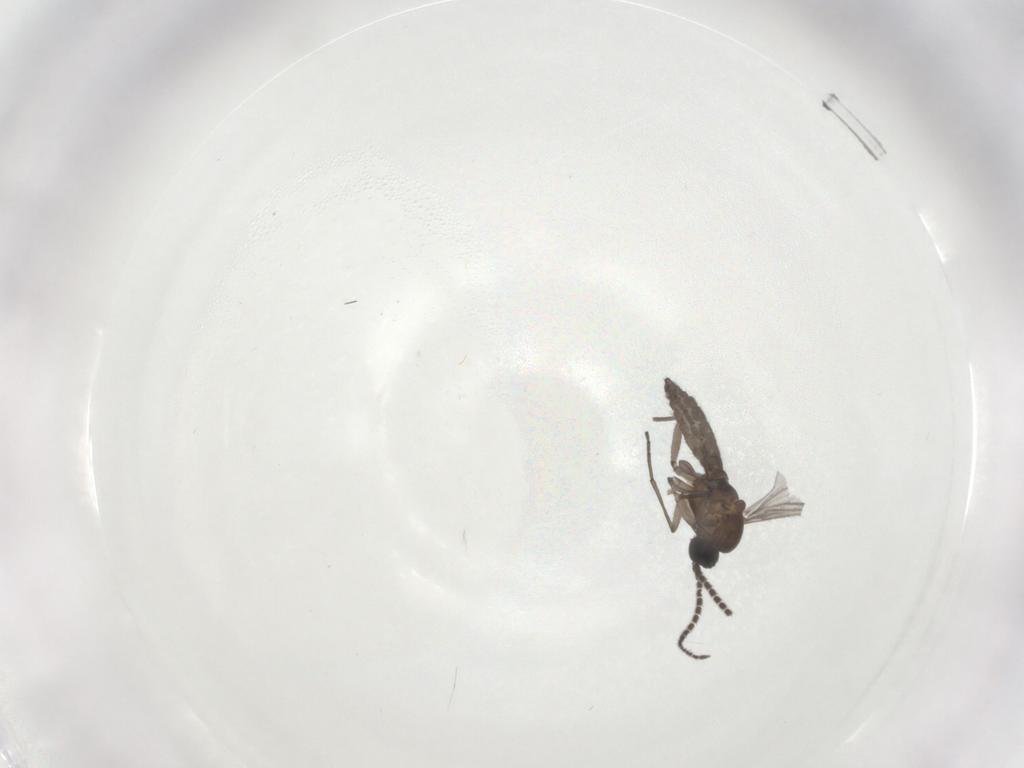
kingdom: Animalia
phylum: Arthropoda
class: Insecta
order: Diptera
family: Sciaridae
